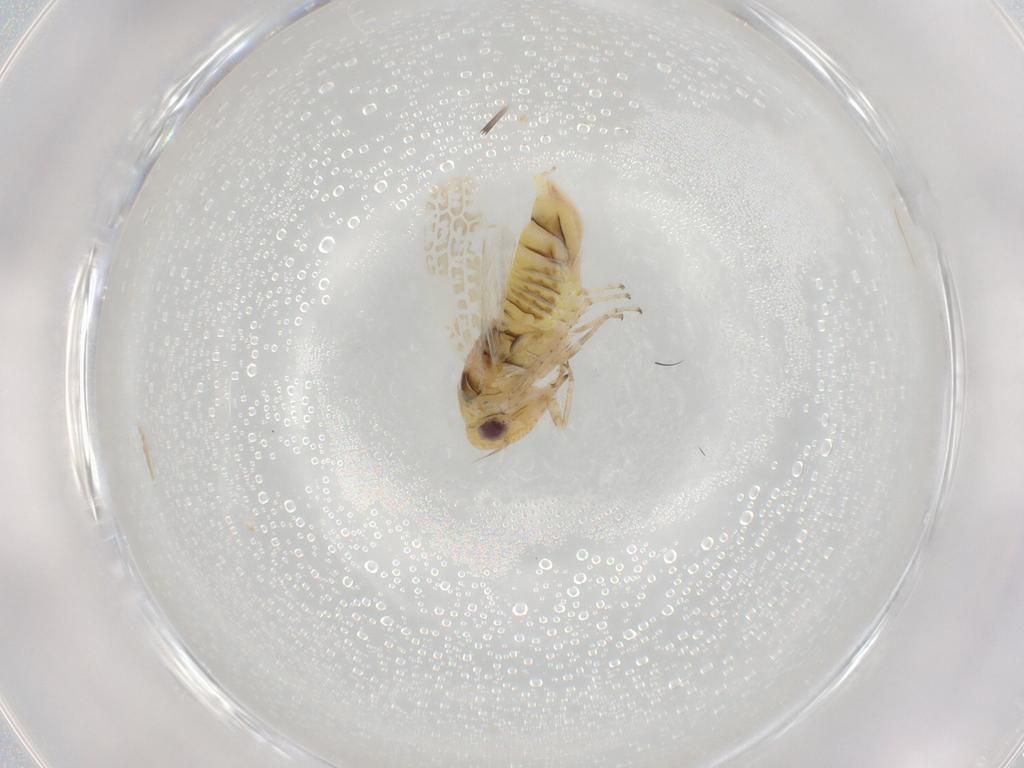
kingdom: Animalia
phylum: Arthropoda
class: Insecta
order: Hemiptera
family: Cicadellidae
